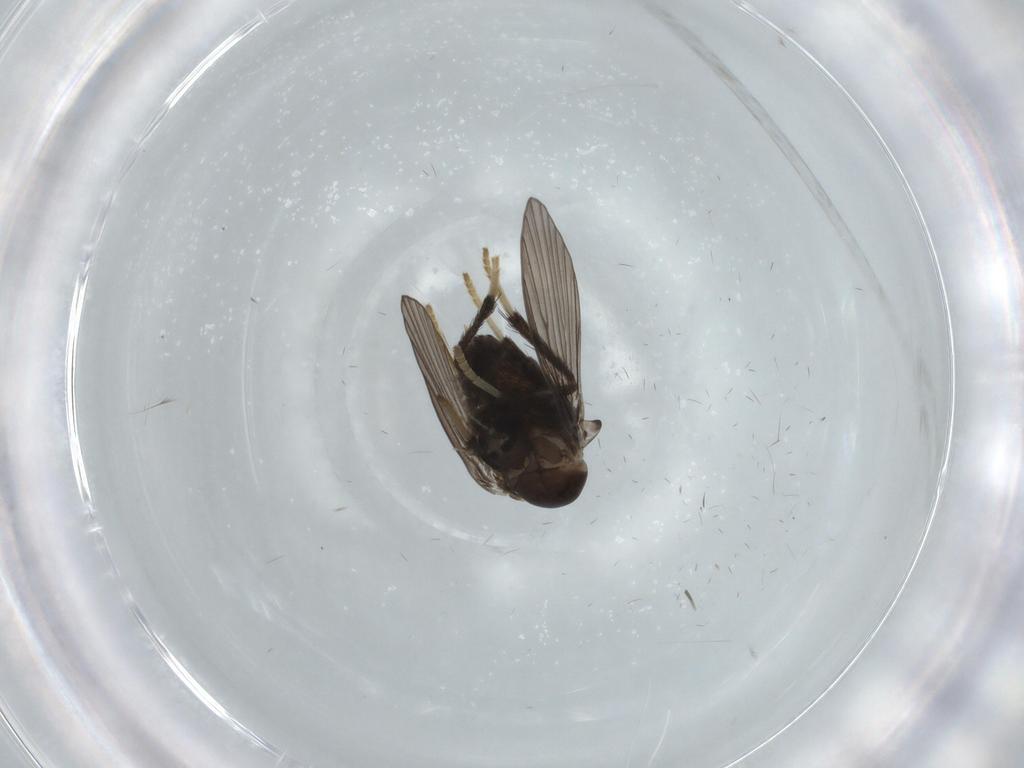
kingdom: Animalia
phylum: Arthropoda
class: Insecta
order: Diptera
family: Psychodidae
